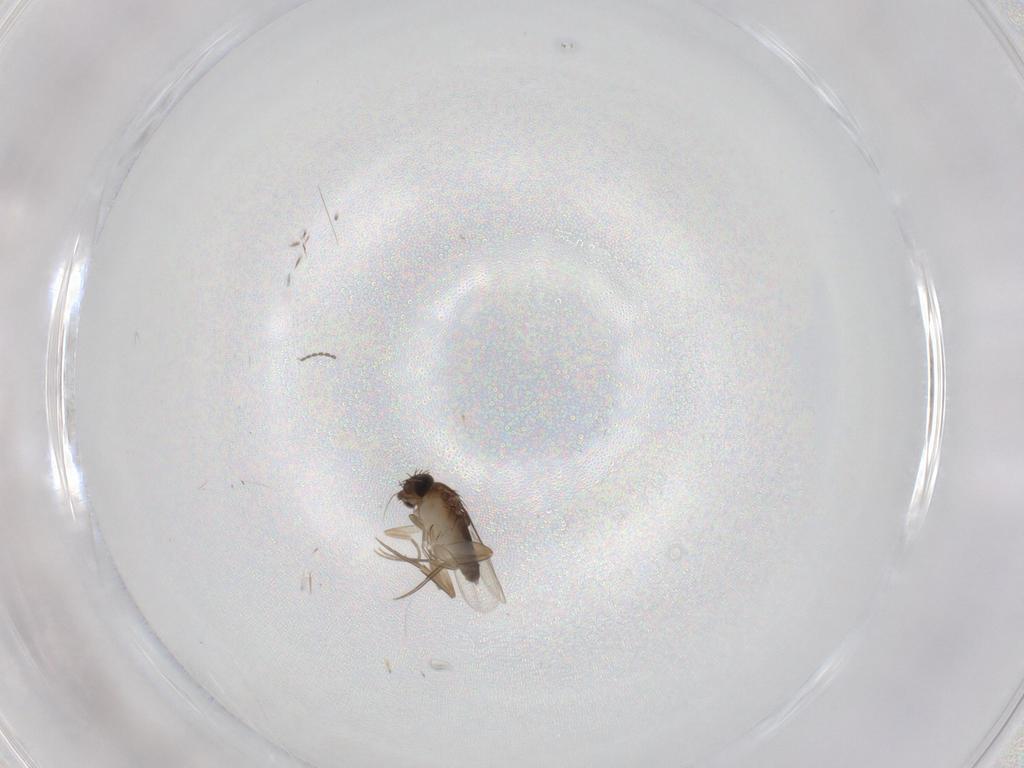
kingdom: Animalia
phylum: Arthropoda
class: Insecta
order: Diptera
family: Phoridae
